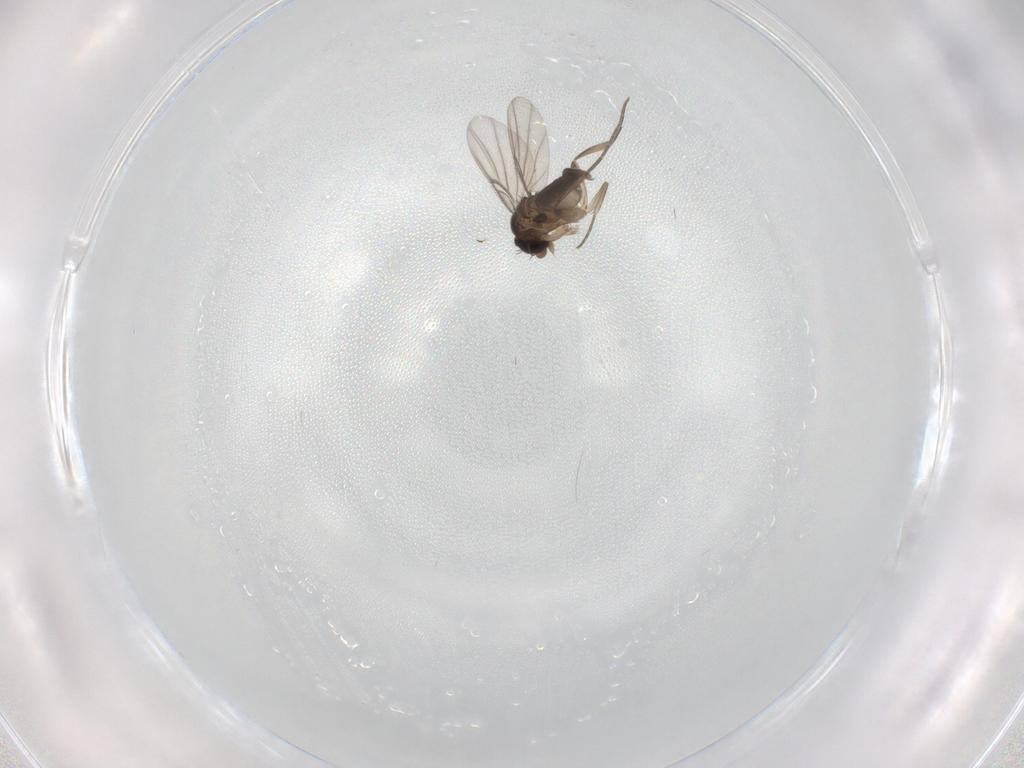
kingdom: Animalia
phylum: Arthropoda
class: Insecta
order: Diptera
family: Phoridae
